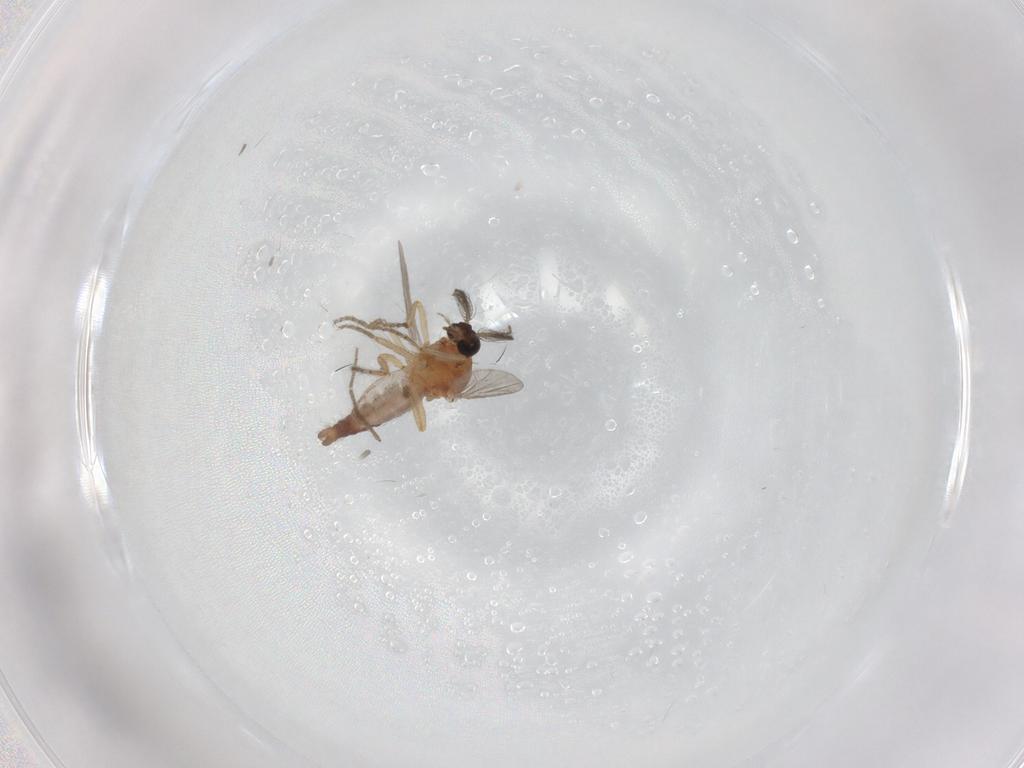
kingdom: Animalia
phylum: Arthropoda
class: Insecta
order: Diptera
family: Ceratopogonidae
